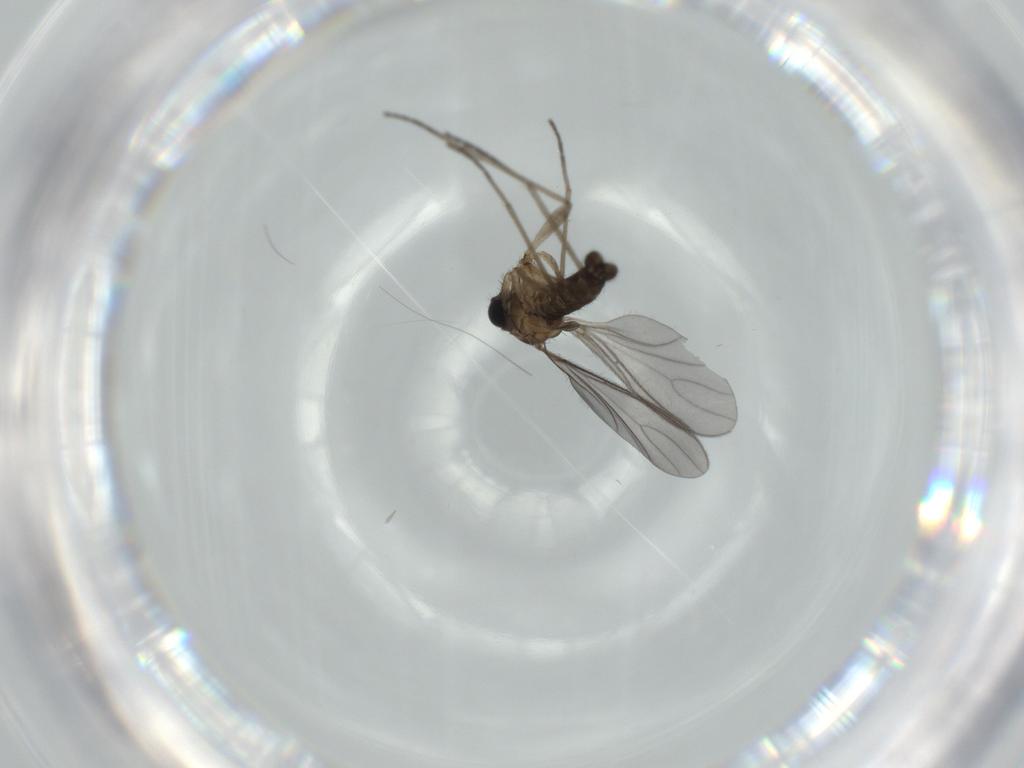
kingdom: Animalia
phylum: Arthropoda
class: Insecta
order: Diptera
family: Sciaridae
